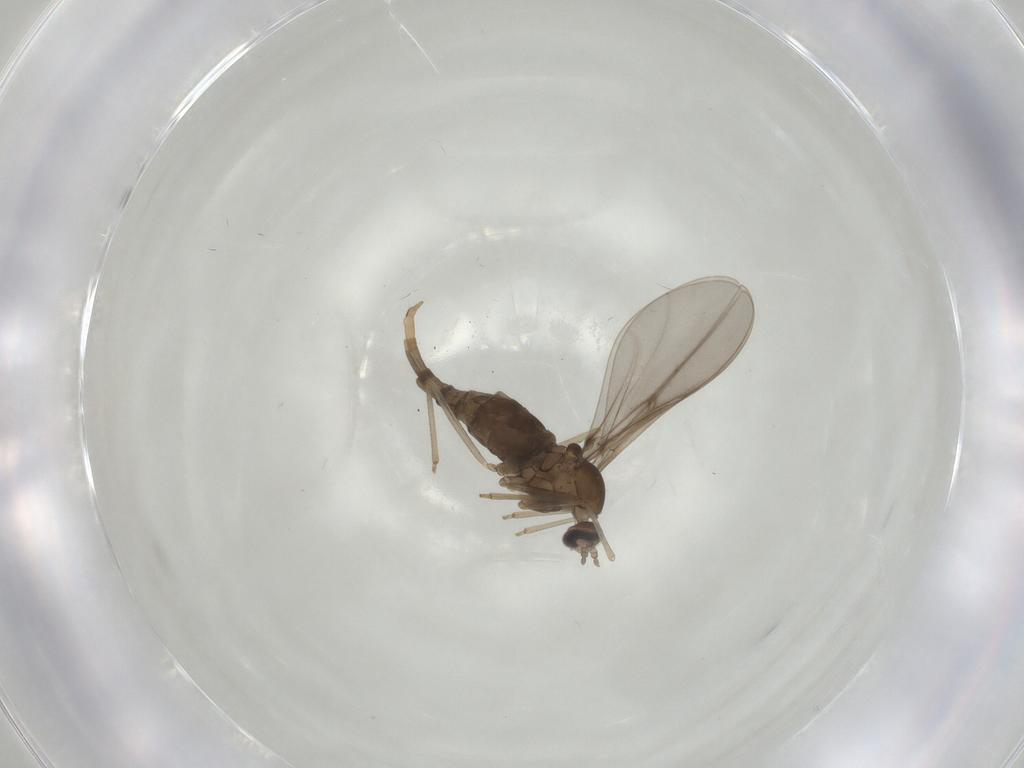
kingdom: Animalia
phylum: Arthropoda
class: Insecta
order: Diptera
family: Cecidomyiidae
